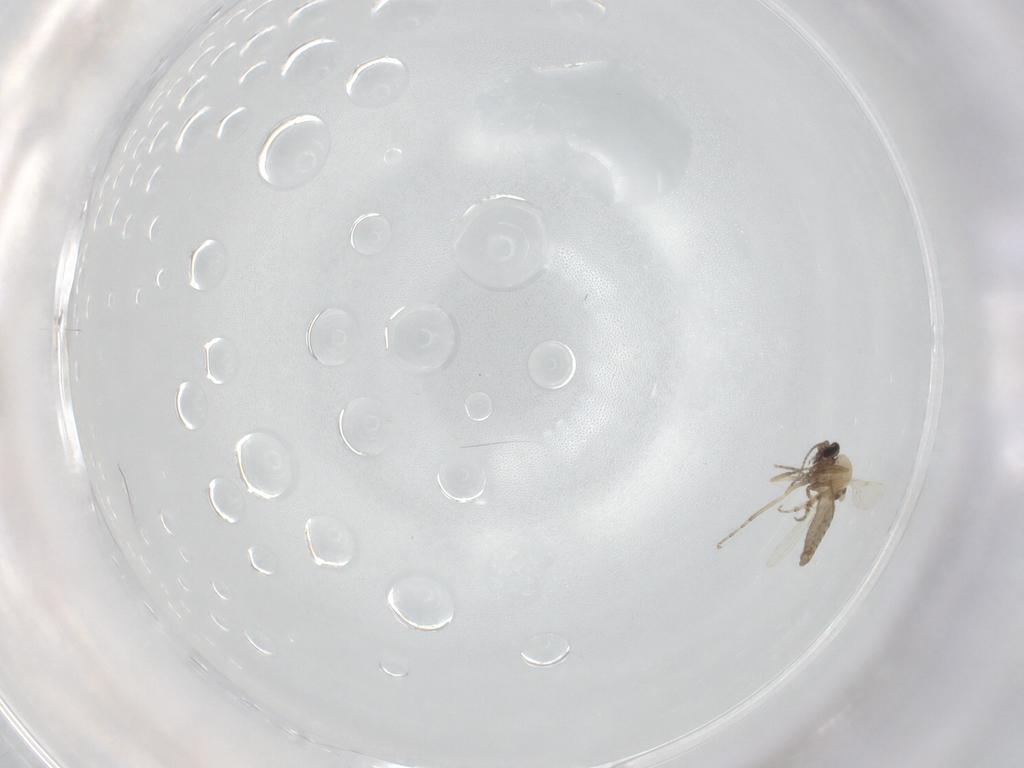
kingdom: Animalia
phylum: Arthropoda
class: Insecta
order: Diptera
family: Ceratopogonidae
